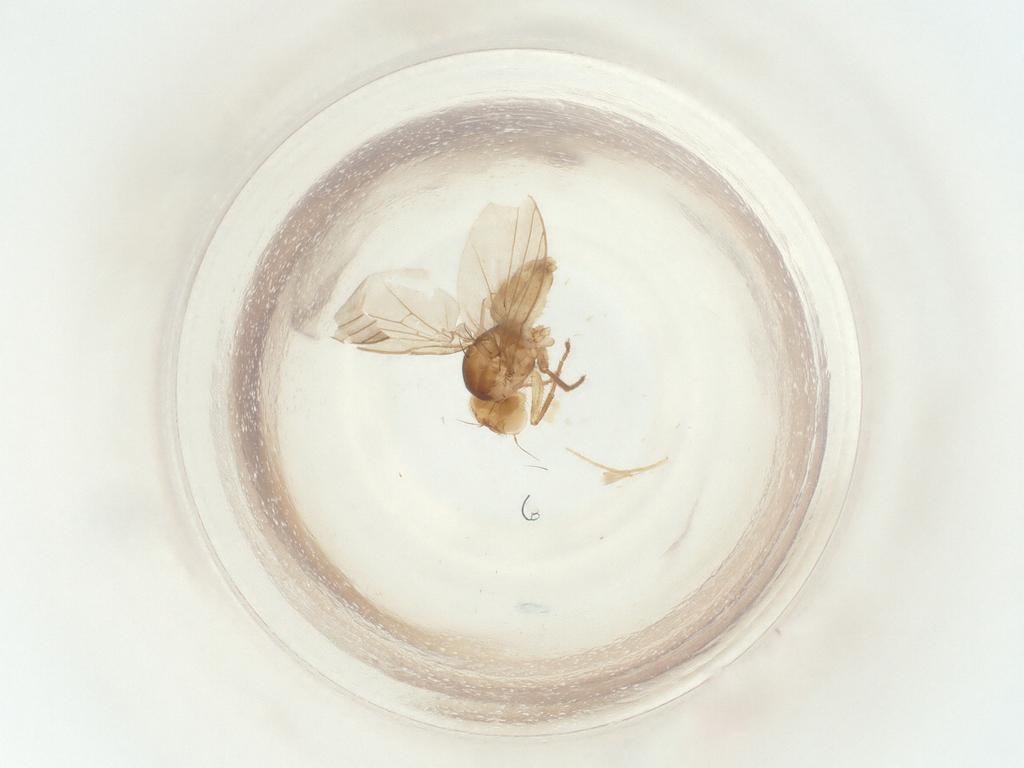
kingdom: Animalia
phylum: Arthropoda
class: Insecta
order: Diptera
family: Agromyzidae
